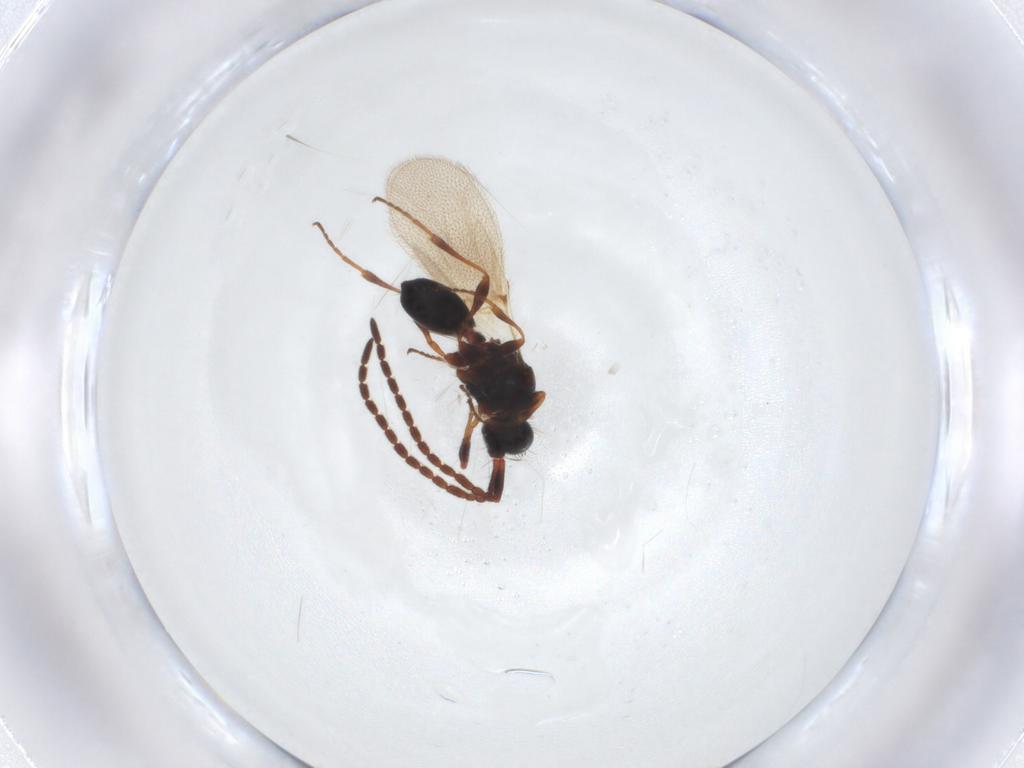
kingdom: Animalia
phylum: Arthropoda
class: Insecta
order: Hymenoptera
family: Diapriidae
